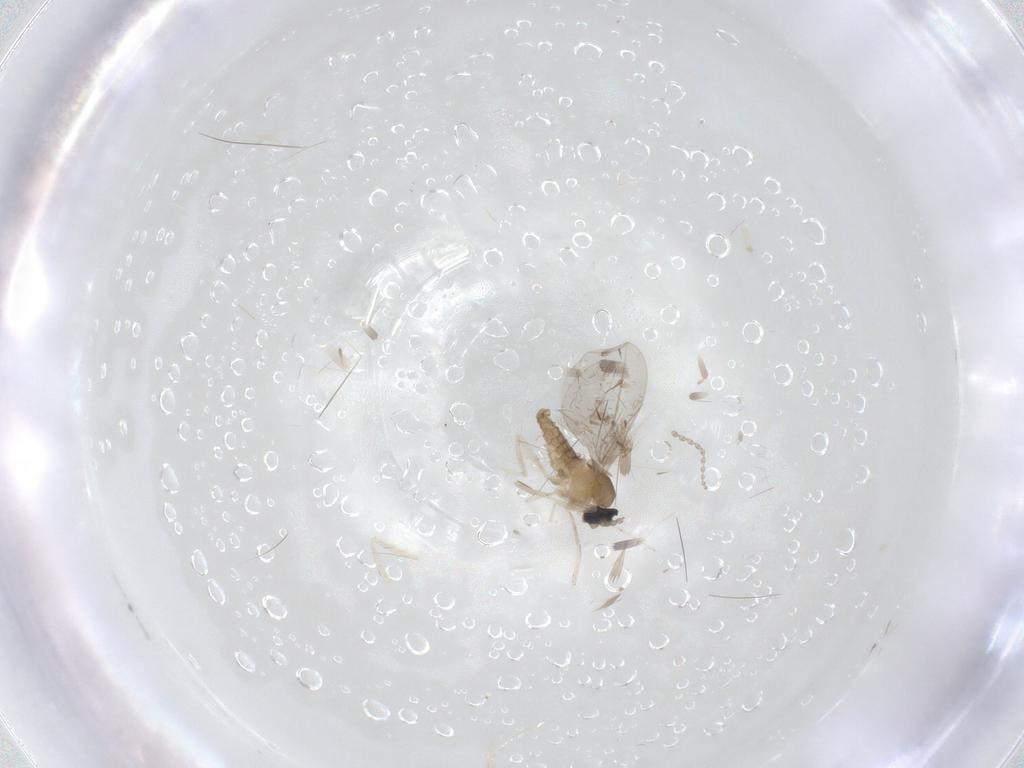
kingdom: Animalia
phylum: Arthropoda
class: Insecta
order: Diptera
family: Cecidomyiidae
